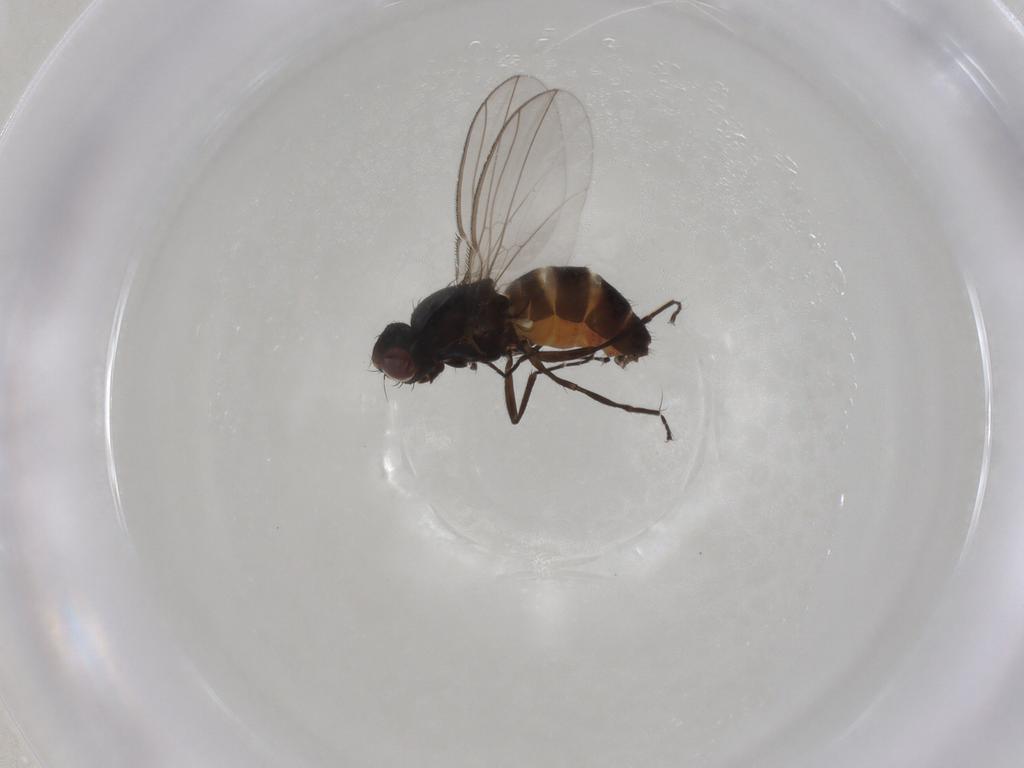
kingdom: Animalia
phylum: Arthropoda
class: Insecta
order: Diptera
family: Carnidae
